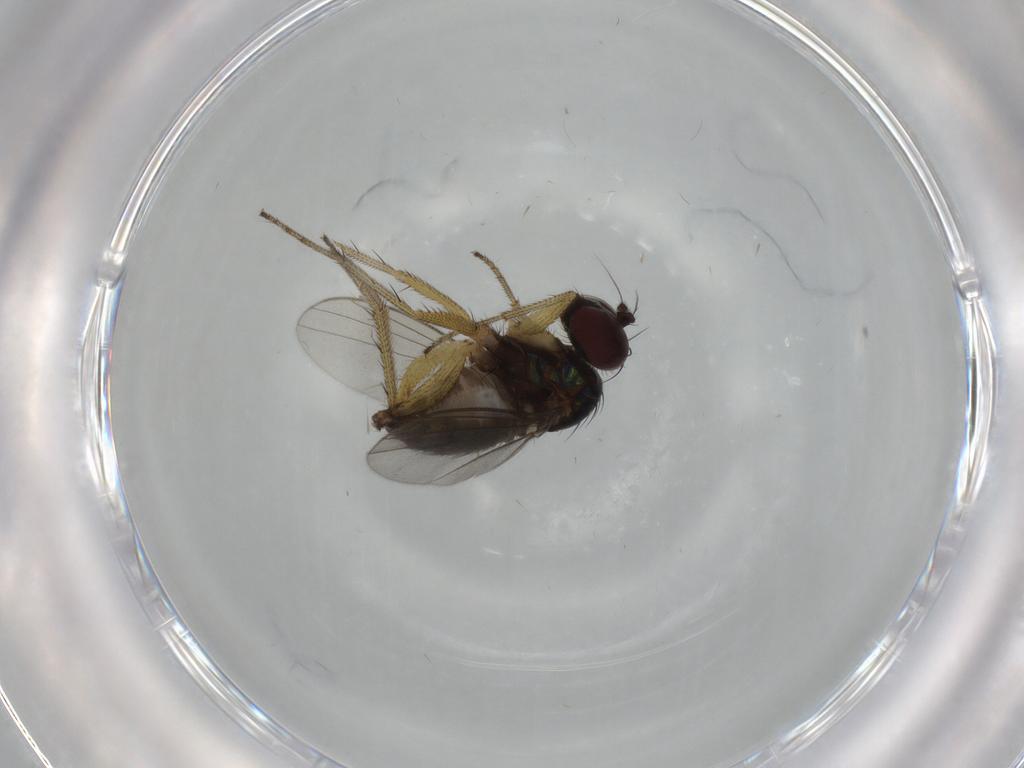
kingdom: Animalia
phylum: Arthropoda
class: Insecta
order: Diptera
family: Dolichopodidae
